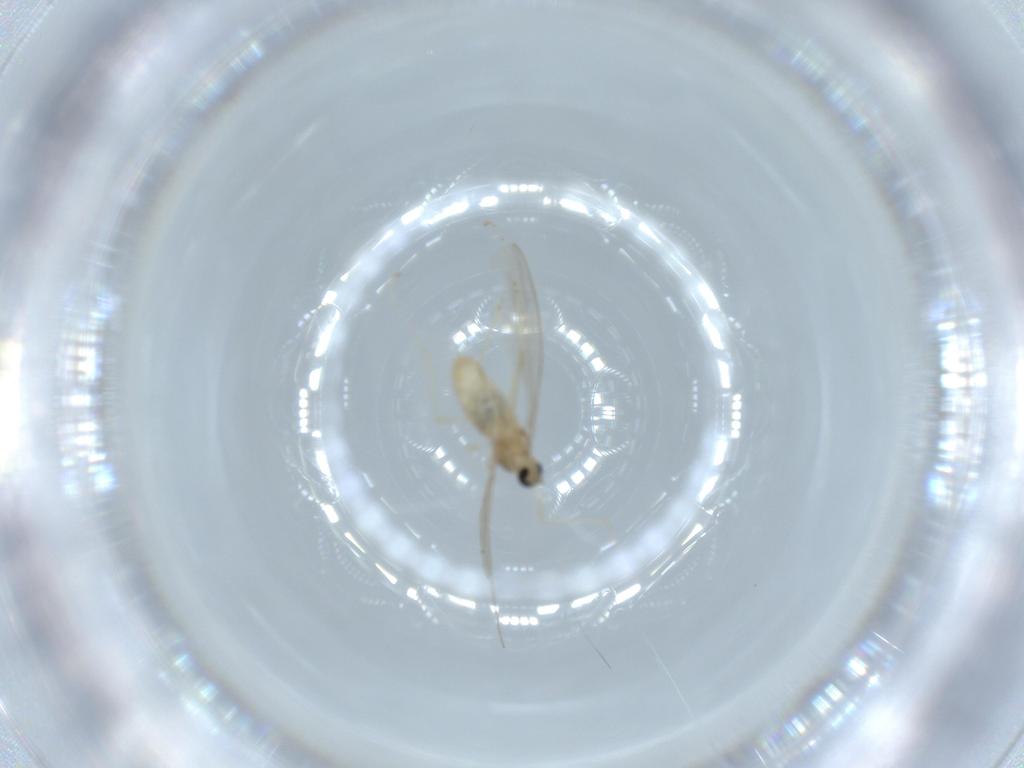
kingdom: Animalia
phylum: Arthropoda
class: Insecta
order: Diptera
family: Cecidomyiidae
